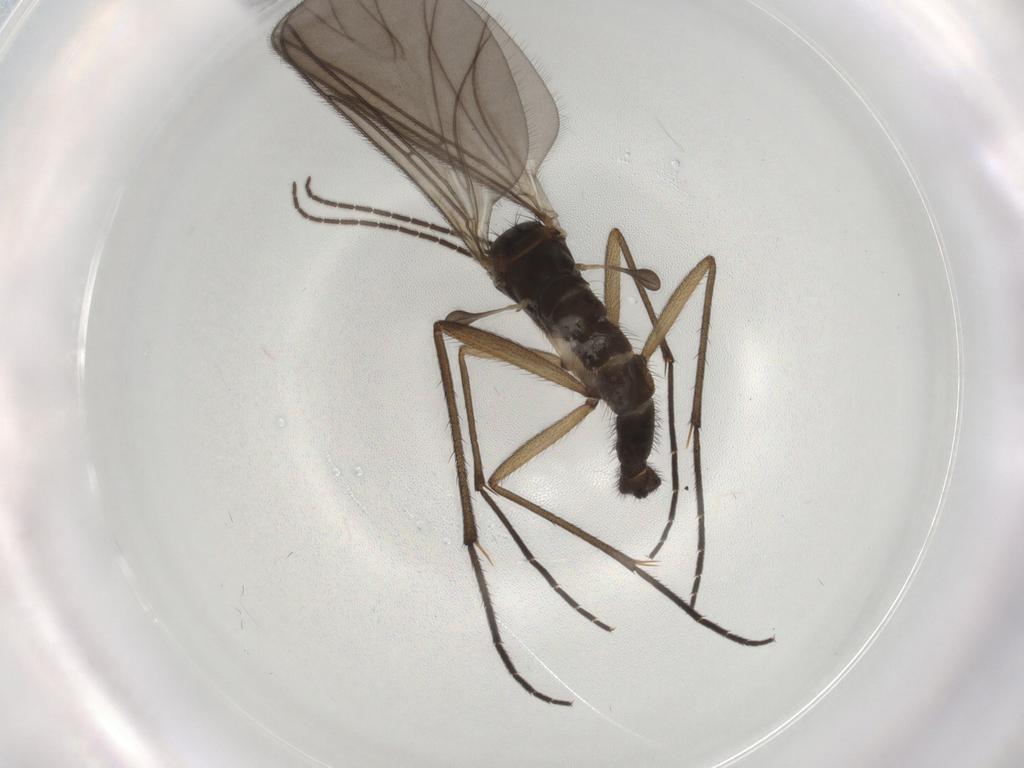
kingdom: Animalia
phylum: Arthropoda
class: Insecta
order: Diptera
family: Sciaridae
